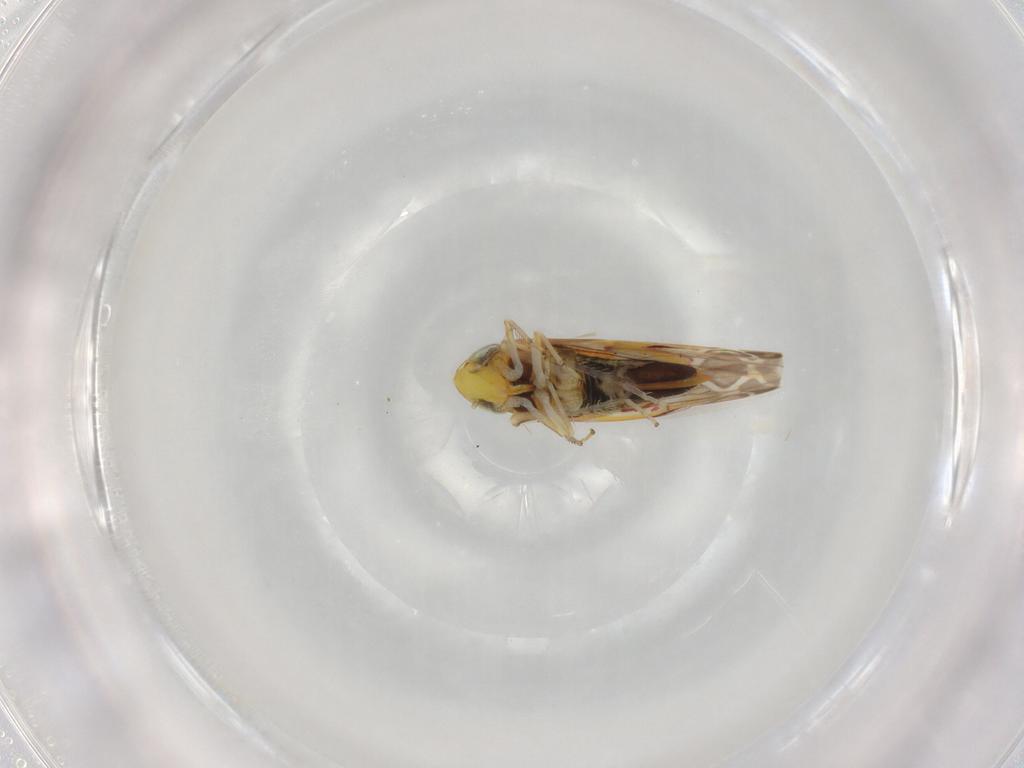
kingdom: Animalia
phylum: Arthropoda
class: Insecta
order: Hemiptera
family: Cicadellidae
